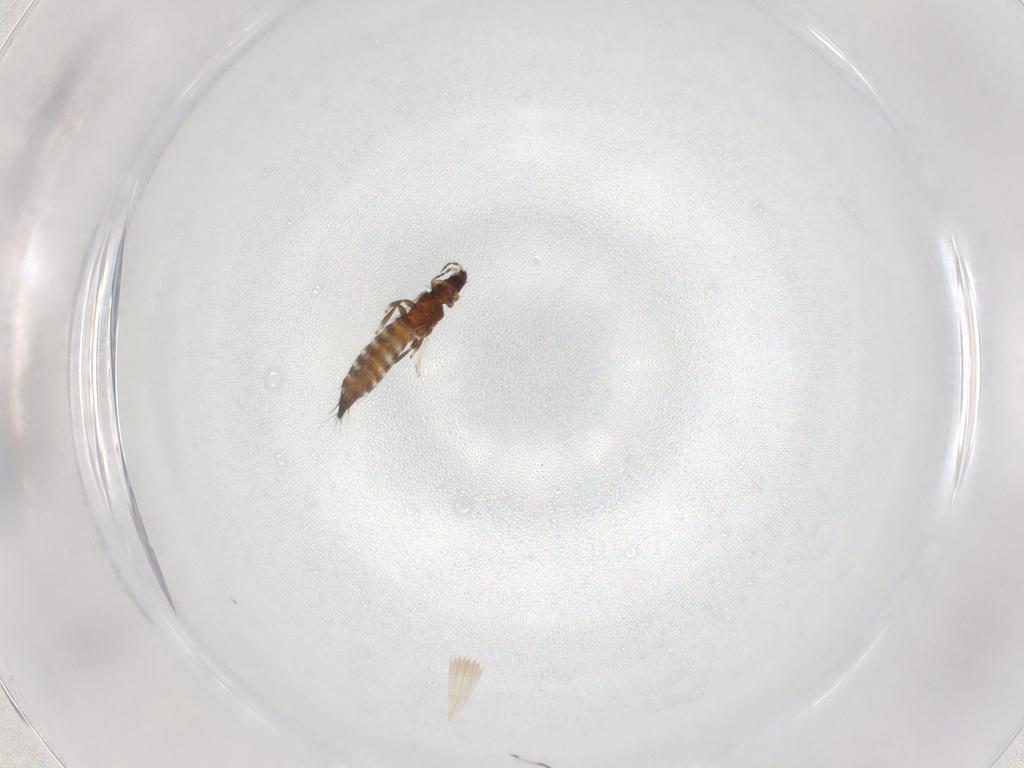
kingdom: Animalia
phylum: Arthropoda
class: Insecta
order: Thysanoptera
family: Thripidae
